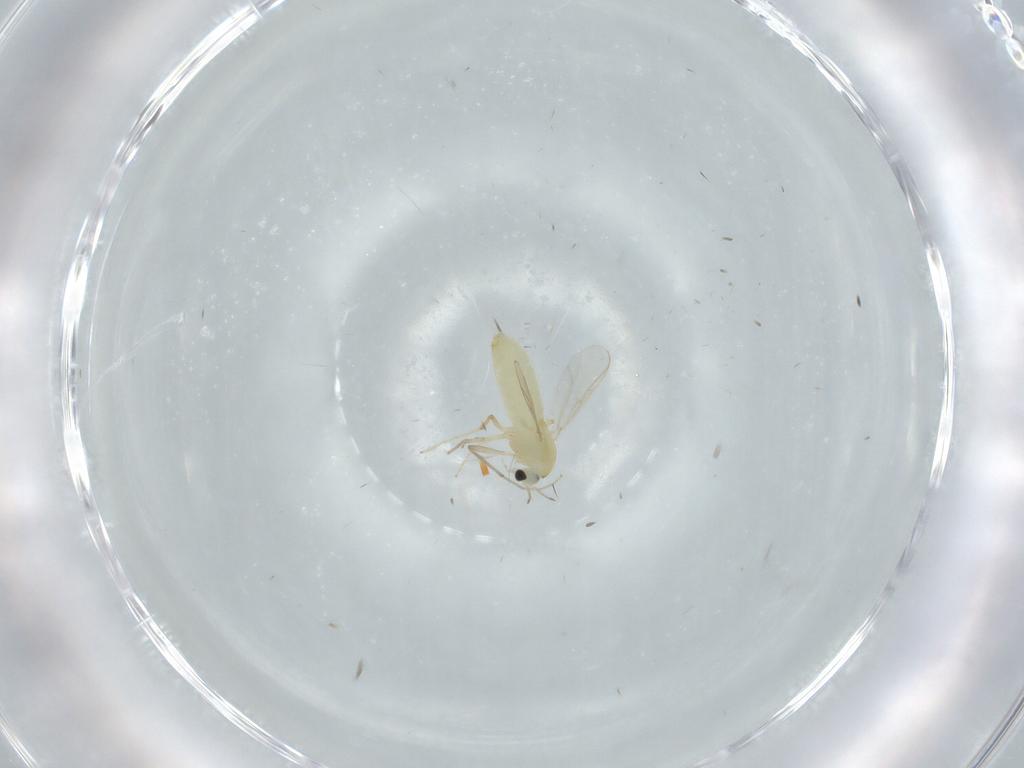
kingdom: Animalia
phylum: Arthropoda
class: Insecta
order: Diptera
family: Chironomidae
